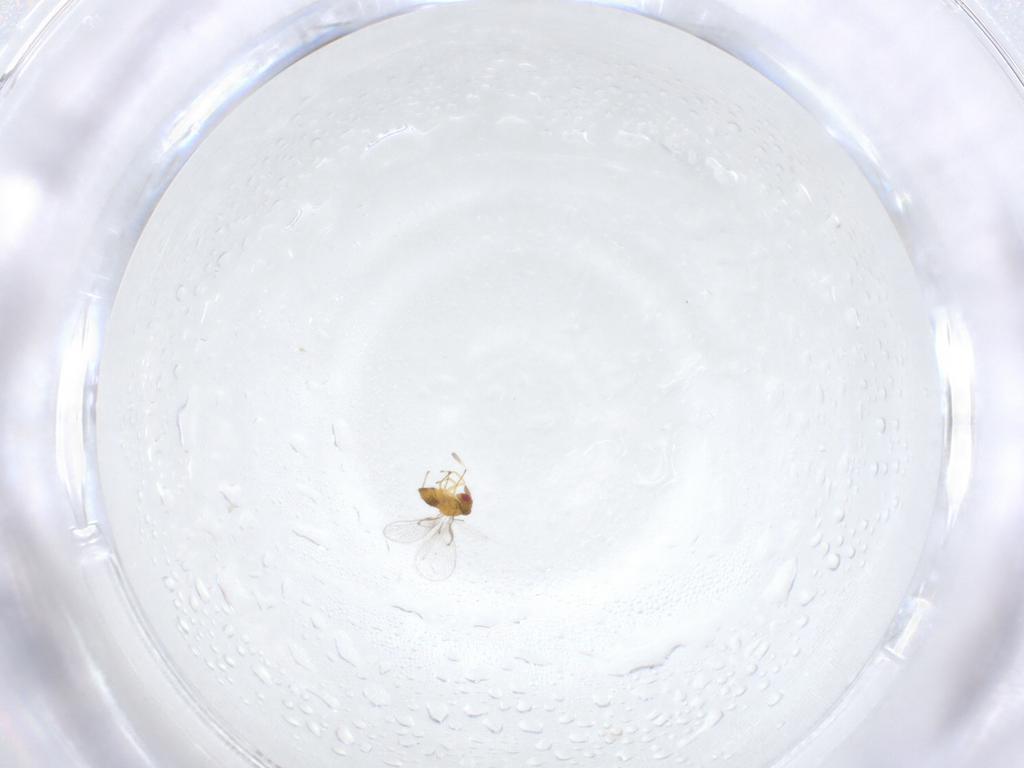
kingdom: Animalia
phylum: Arthropoda
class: Insecta
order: Hymenoptera
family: Trichogrammatidae
